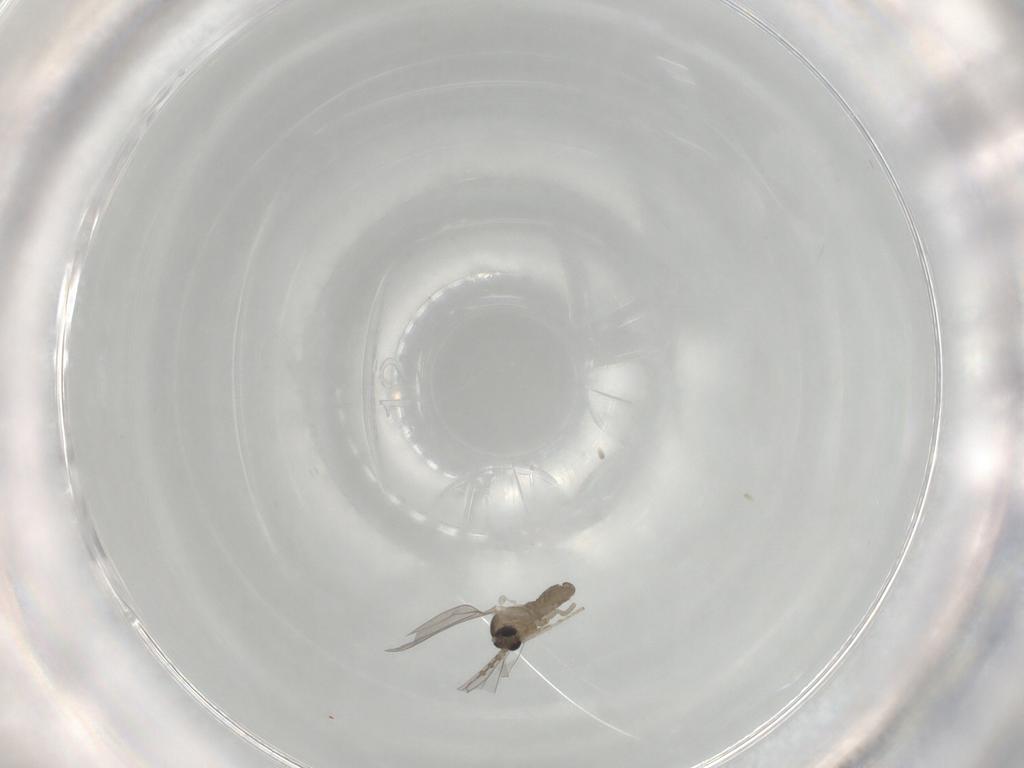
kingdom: Animalia
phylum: Arthropoda
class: Insecta
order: Diptera
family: Cecidomyiidae
